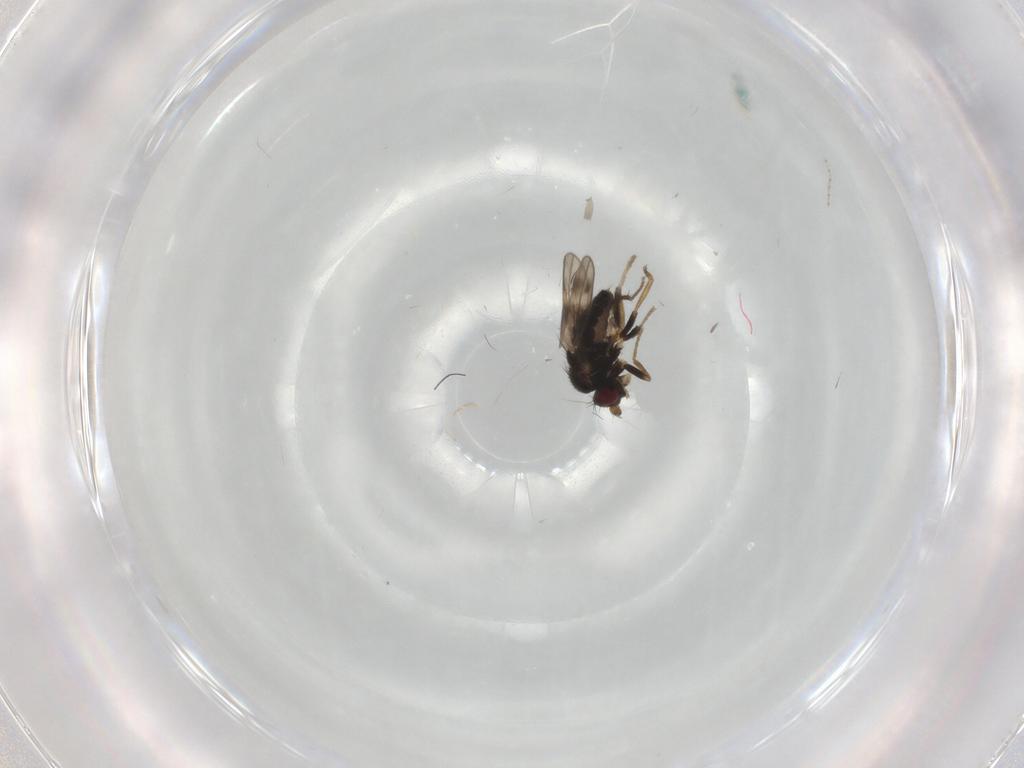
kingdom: Animalia
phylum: Arthropoda
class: Insecta
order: Diptera
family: Sphaeroceridae
